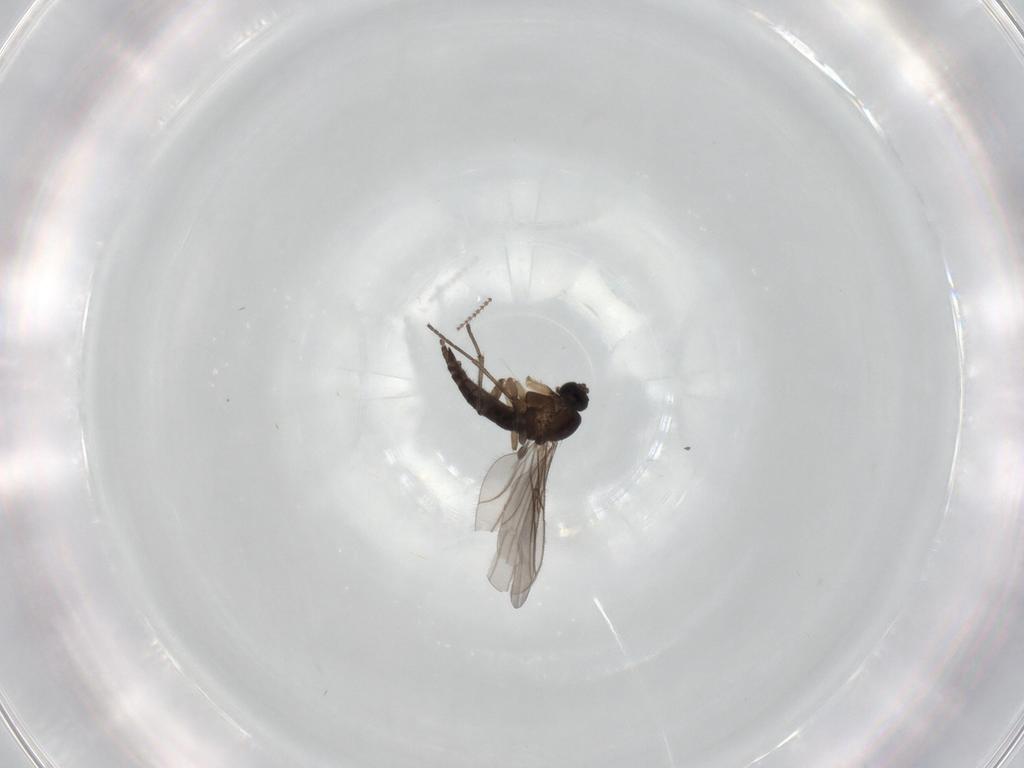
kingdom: Animalia
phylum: Arthropoda
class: Insecta
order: Diptera
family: Sciaridae
